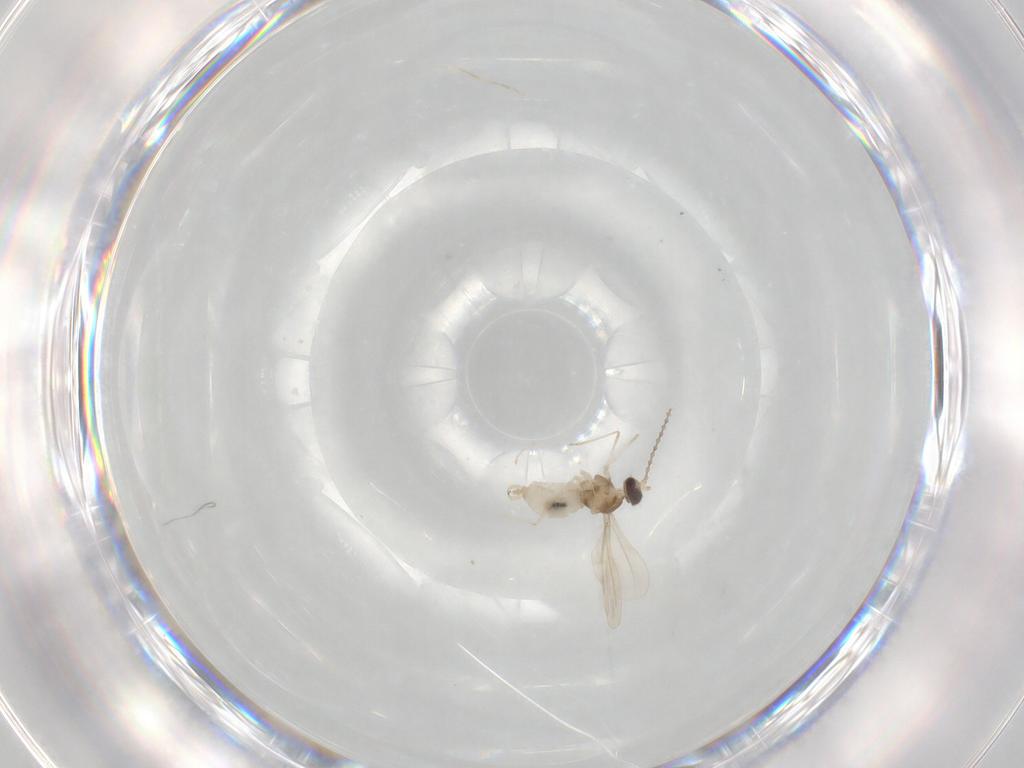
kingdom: Animalia
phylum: Arthropoda
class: Insecta
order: Diptera
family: Cecidomyiidae
